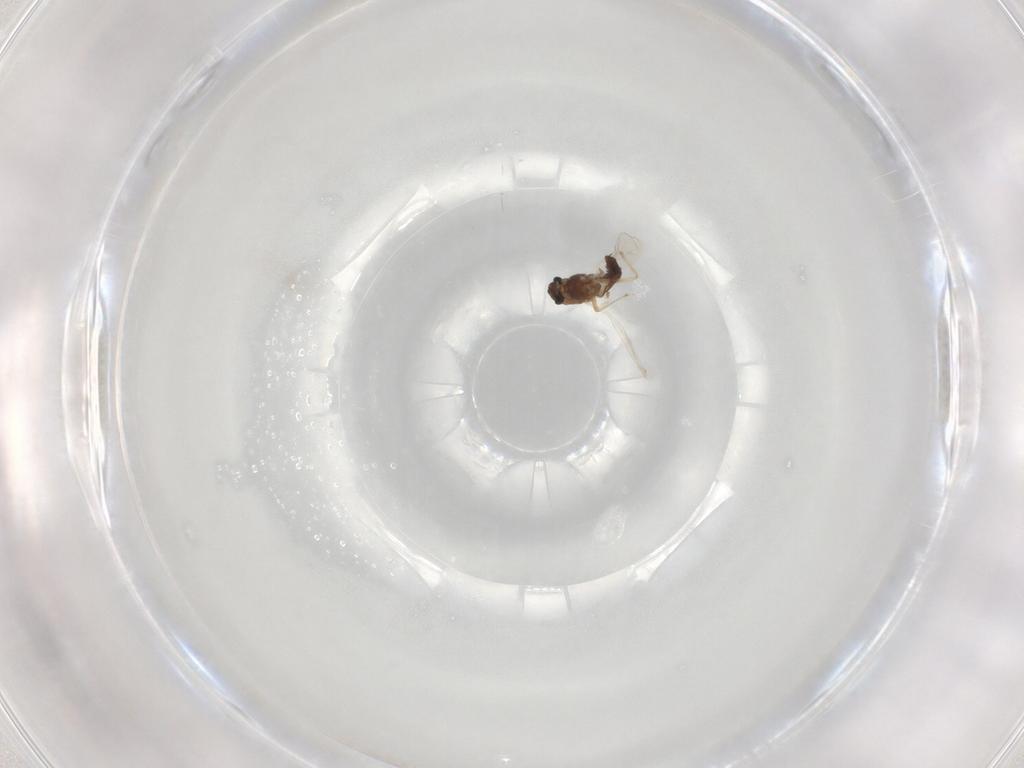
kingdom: Animalia
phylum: Arthropoda
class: Insecta
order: Diptera
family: Chironomidae
